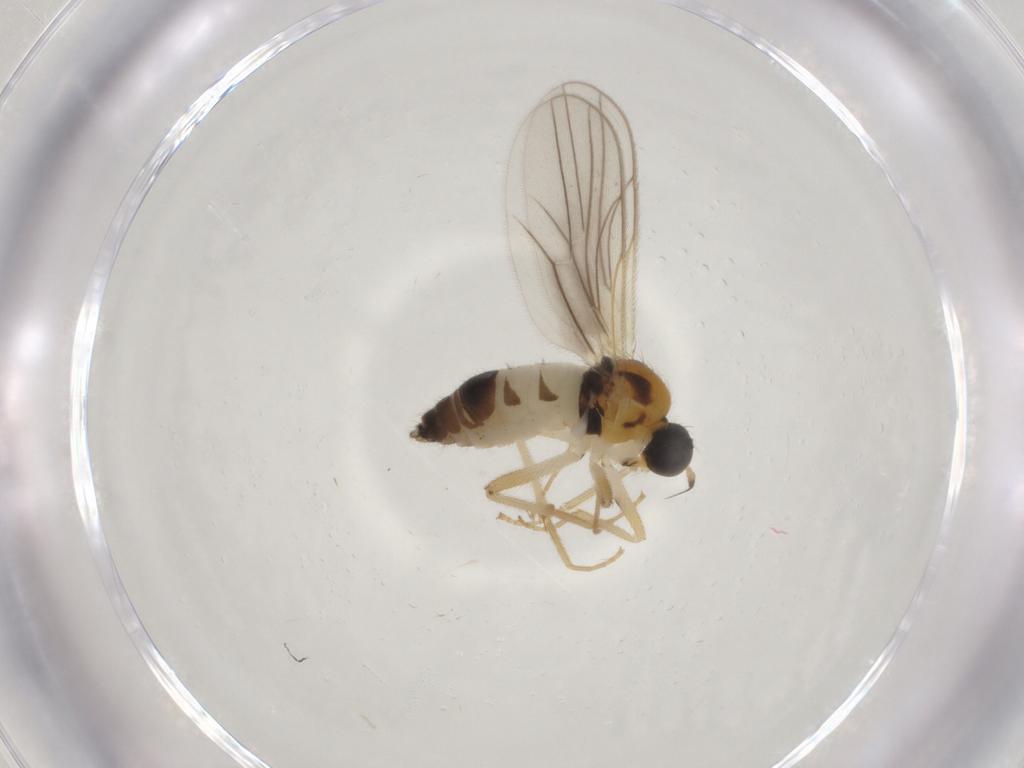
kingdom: Animalia
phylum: Arthropoda
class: Insecta
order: Diptera
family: Hybotidae
